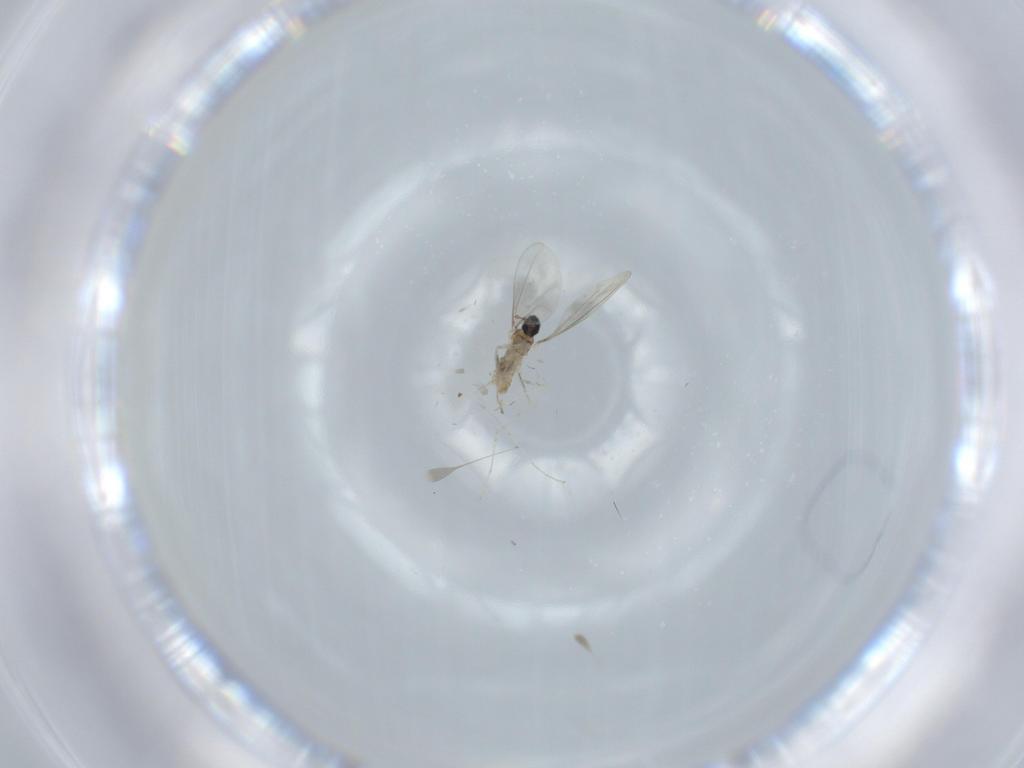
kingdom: Animalia
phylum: Arthropoda
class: Insecta
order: Diptera
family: Cecidomyiidae
